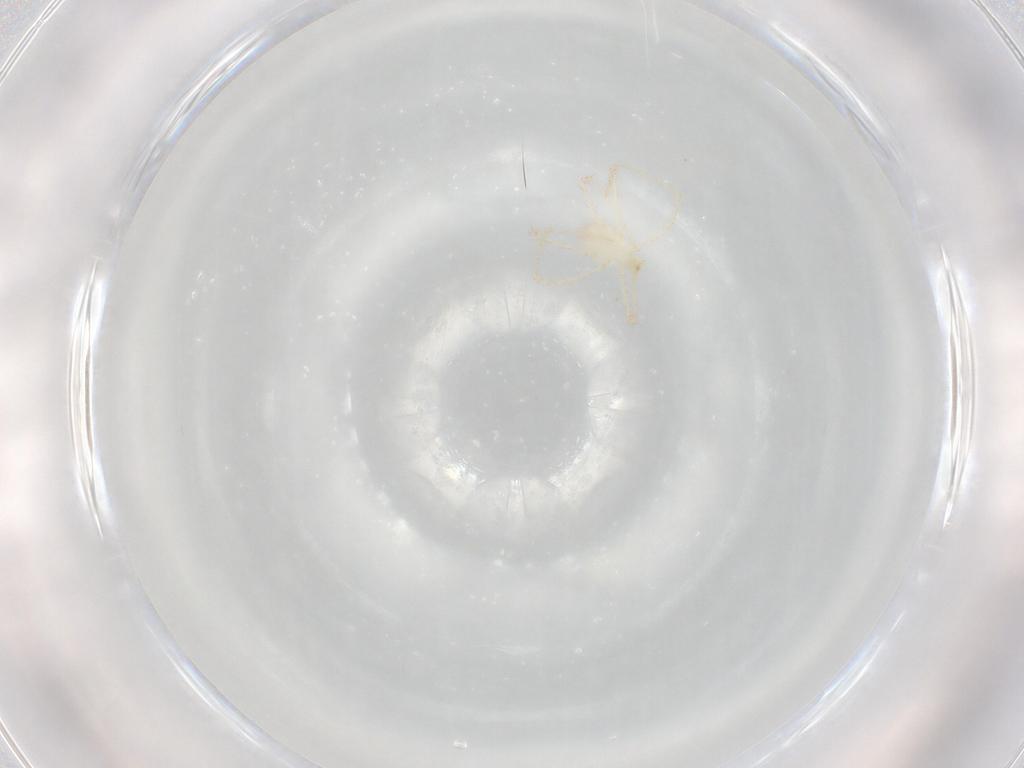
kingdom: Animalia
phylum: Arthropoda
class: Arachnida
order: Trombidiformes
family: Erythraeidae
